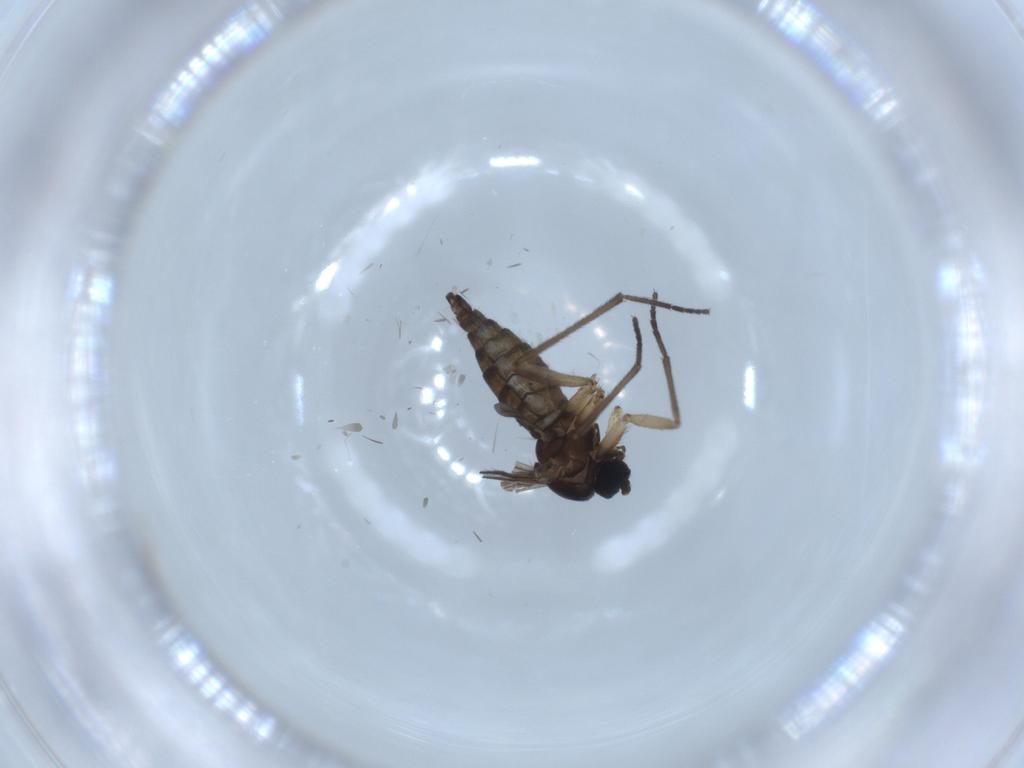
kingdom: Animalia
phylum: Arthropoda
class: Insecta
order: Diptera
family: Sciaridae
